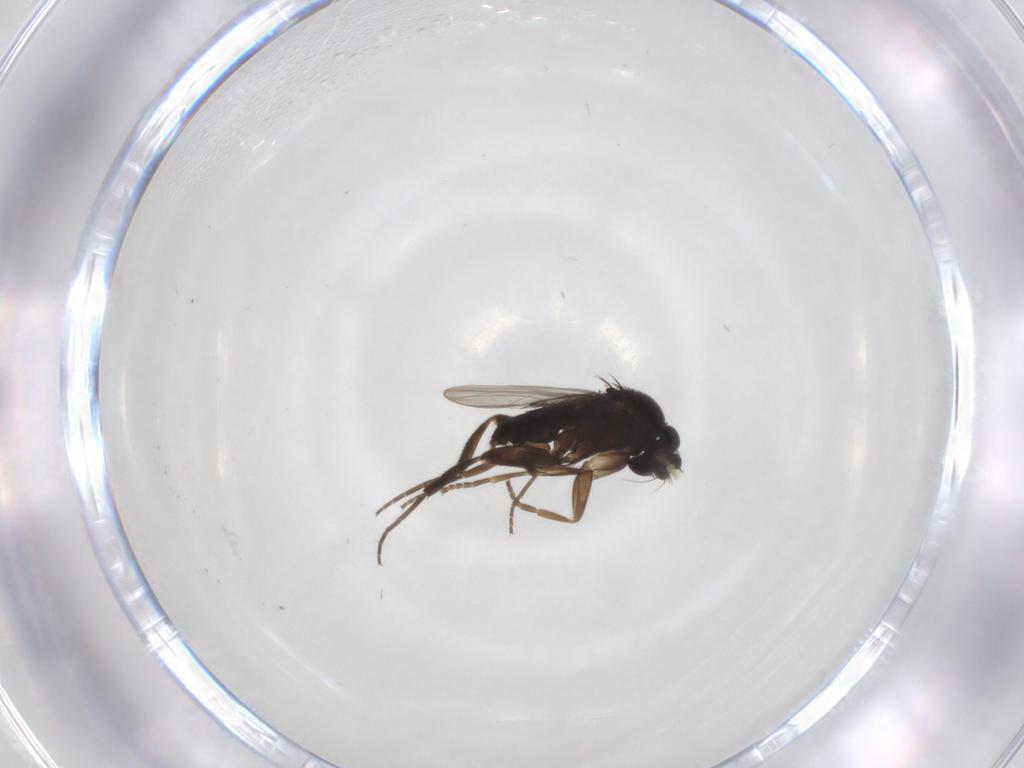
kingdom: Animalia
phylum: Arthropoda
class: Insecta
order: Diptera
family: Phoridae
